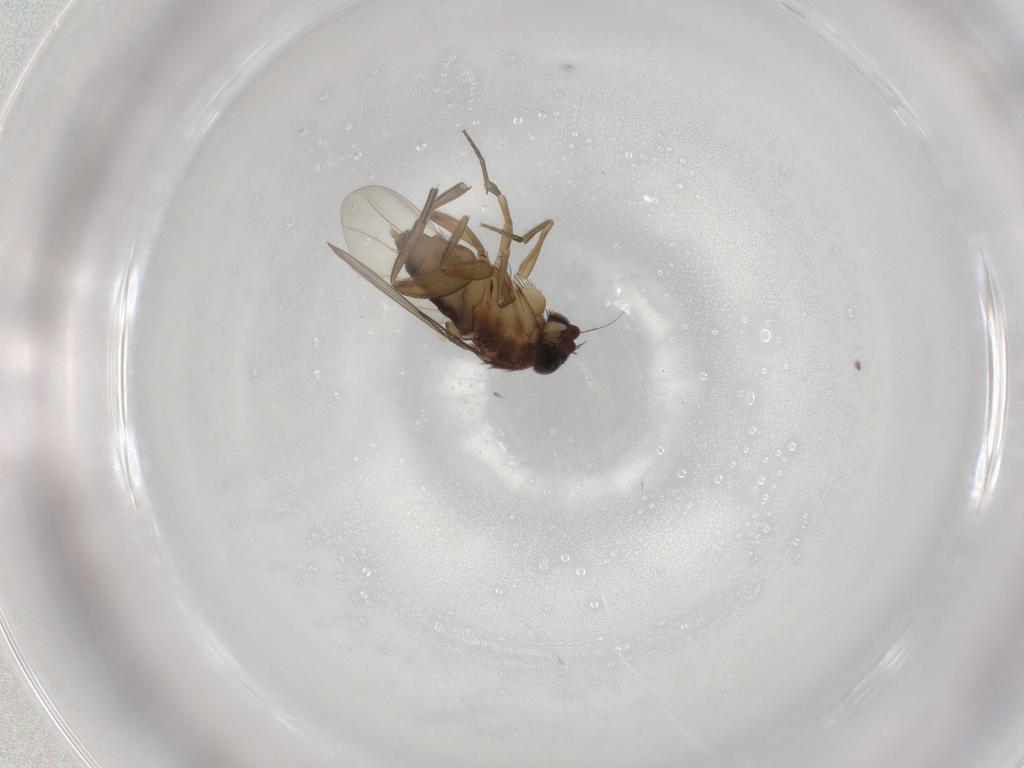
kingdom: Animalia
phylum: Arthropoda
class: Insecta
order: Diptera
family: Phoridae
